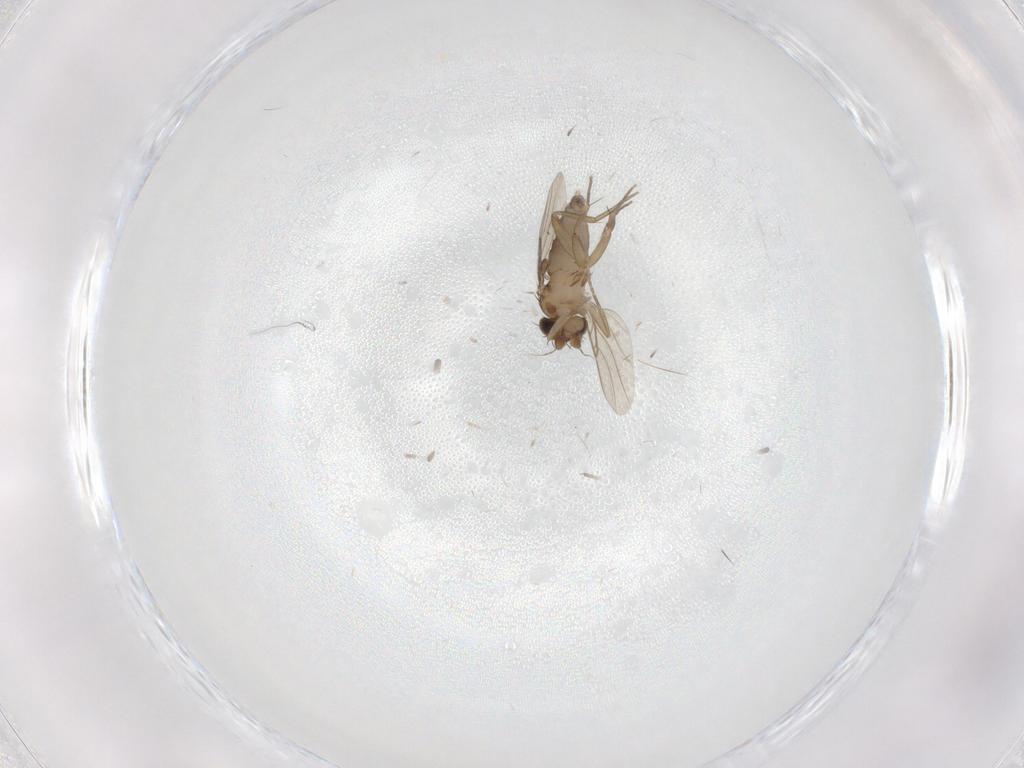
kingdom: Animalia
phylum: Arthropoda
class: Insecta
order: Diptera
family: Phoridae
